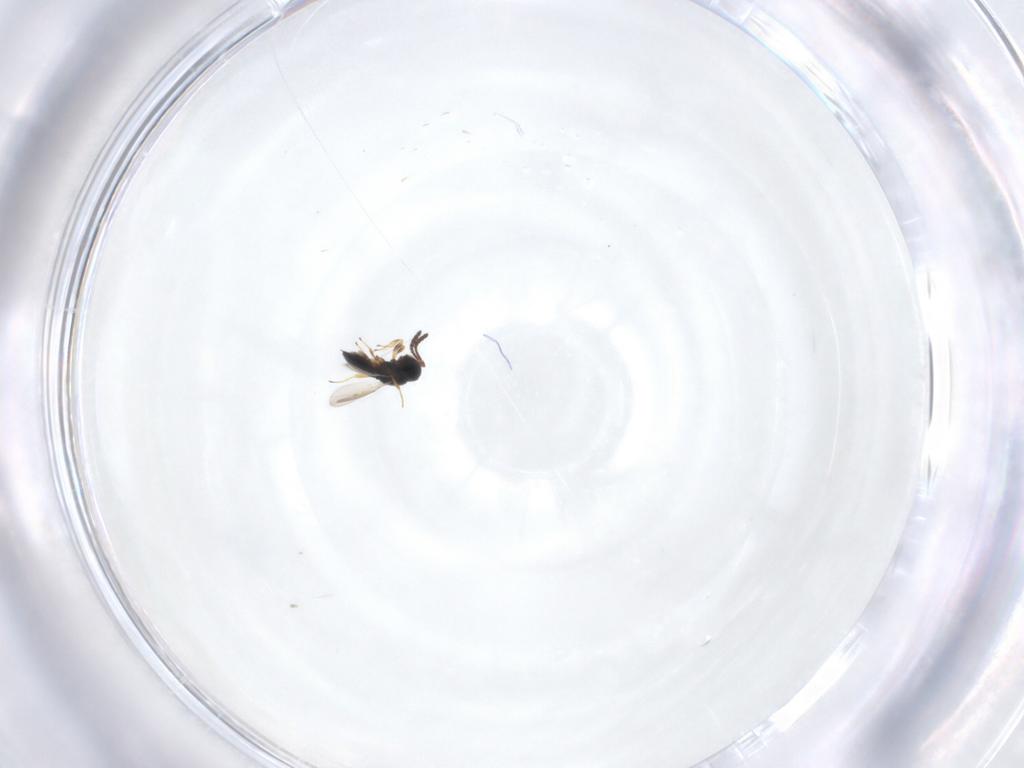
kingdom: Animalia
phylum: Arthropoda
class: Insecta
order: Hymenoptera
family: Scelionidae
